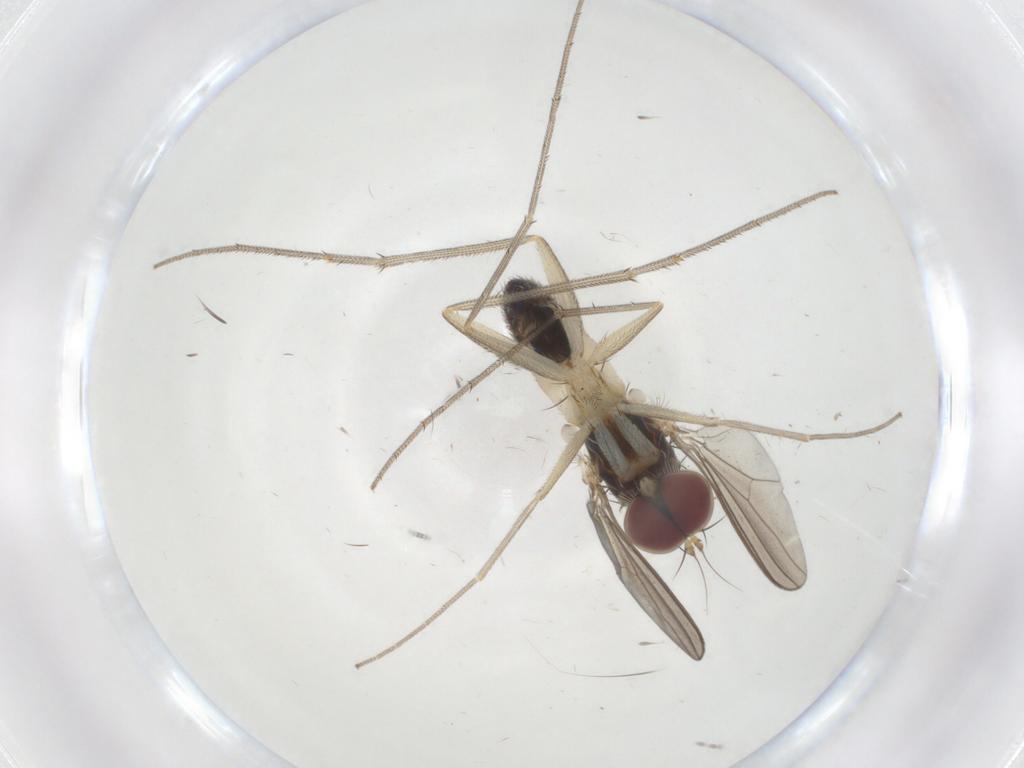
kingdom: Animalia
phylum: Arthropoda
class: Insecta
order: Diptera
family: Dolichopodidae
